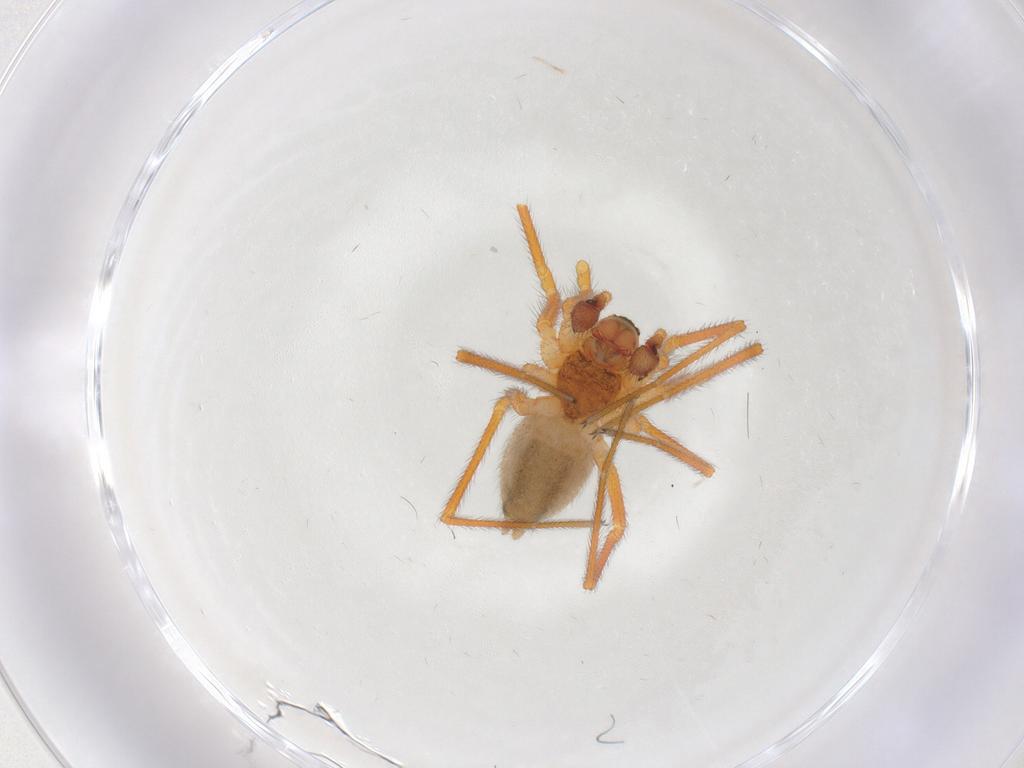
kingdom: Animalia
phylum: Arthropoda
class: Arachnida
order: Araneae
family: Linyphiidae
